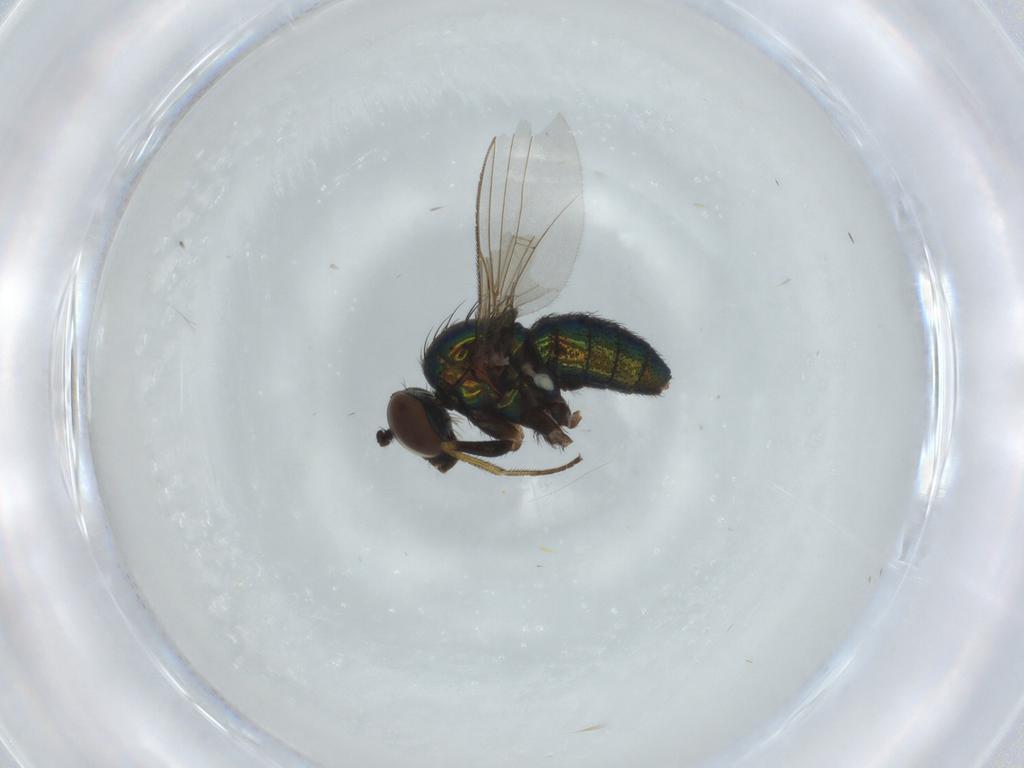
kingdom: Animalia
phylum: Arthropoda
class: Insecta
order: Diptera
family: Dolichopodidae
